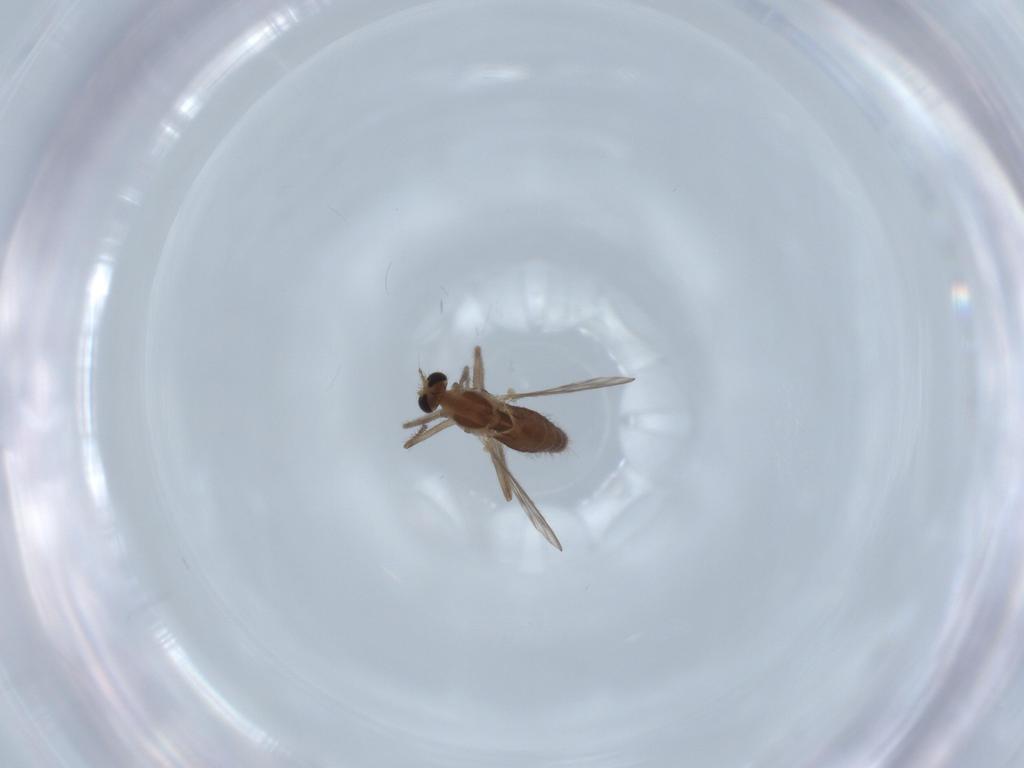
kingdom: Animalia
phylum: Arthropoda
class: Insecta
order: Diptera
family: Chironomidae
